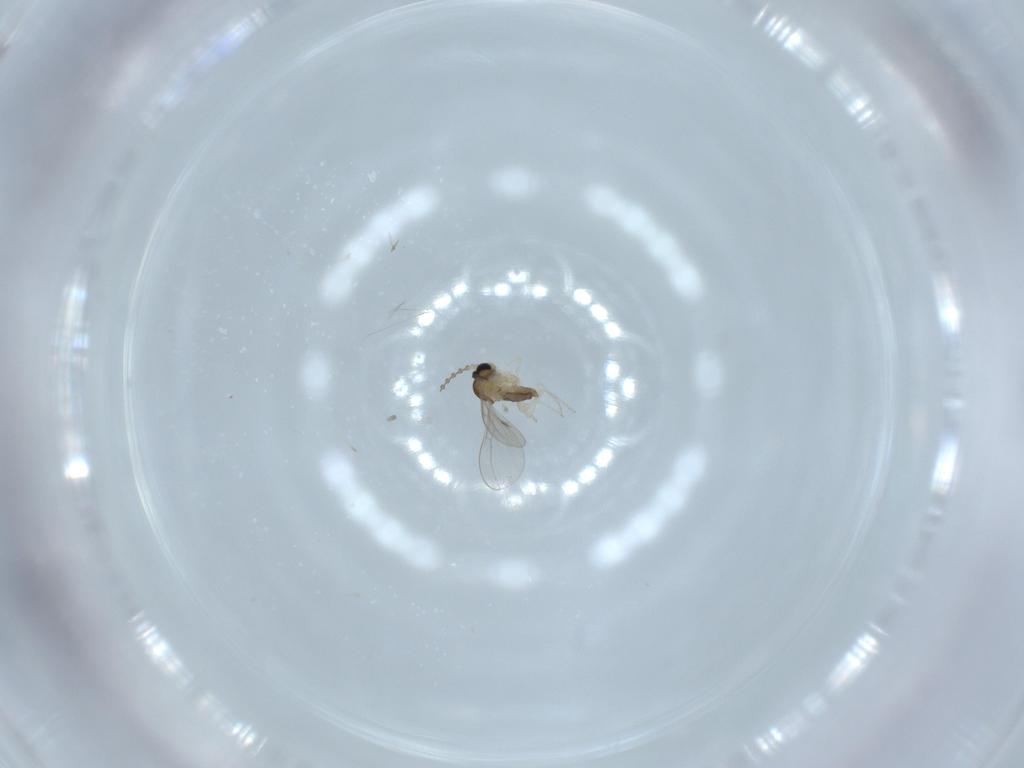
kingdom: Animalia
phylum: Arthropoda
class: Insecta
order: Diptera
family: Cecidomyiidae
